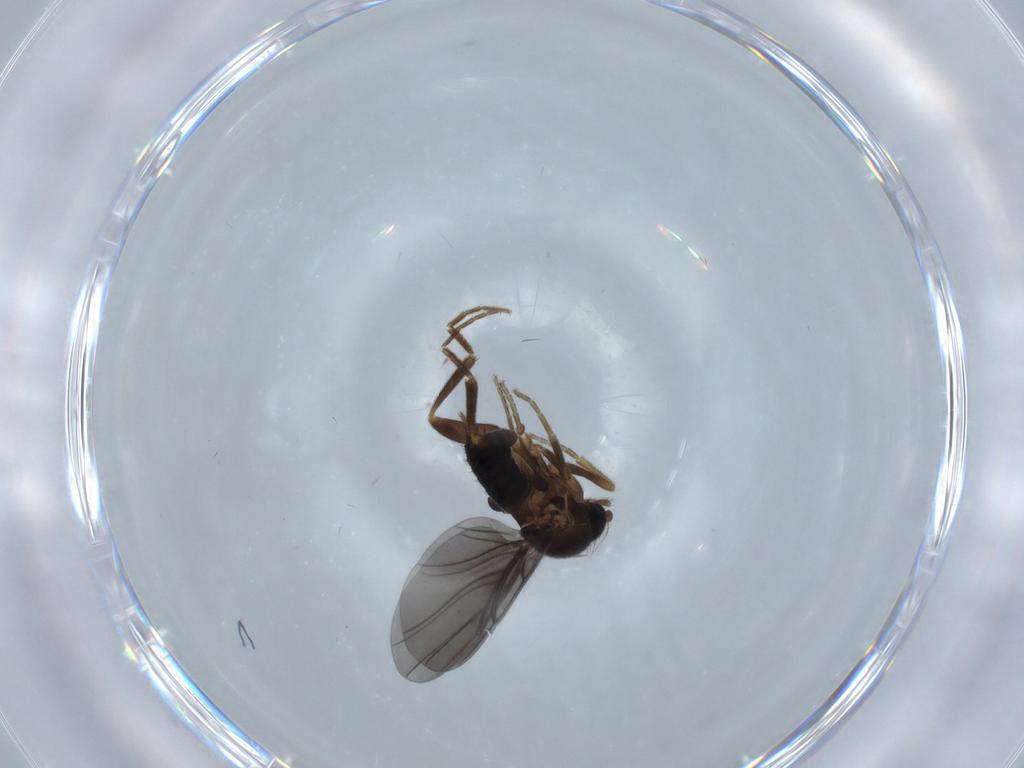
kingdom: Animalia
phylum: Arthropoda
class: Insecta
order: Diptera
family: Phoridae
